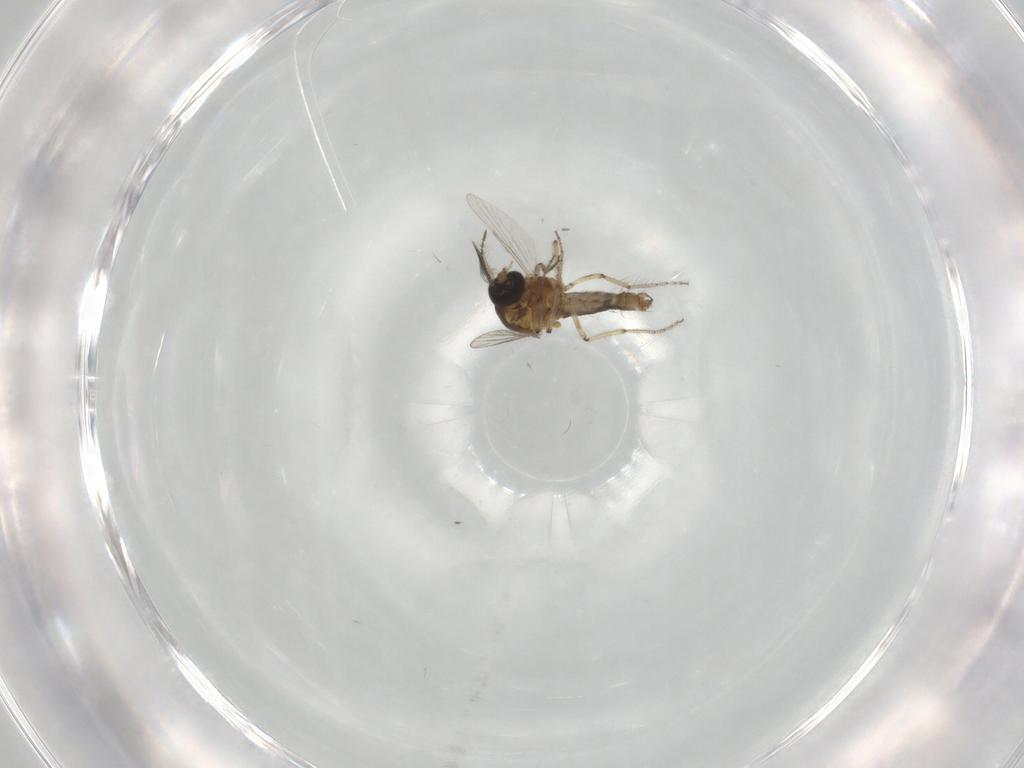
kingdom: Animalia
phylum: Arthropoda
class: Insecta
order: Diptera
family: Ceratopogonidae
